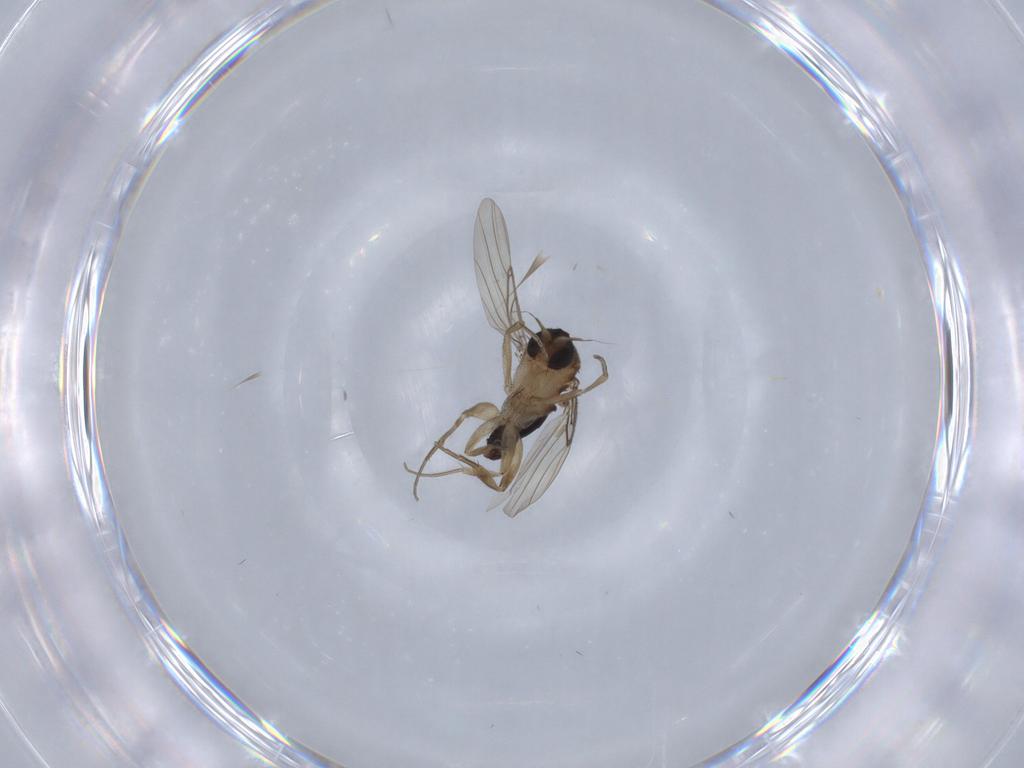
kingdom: Animalia
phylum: Arthropoda
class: Insecta
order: Diptera
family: Phoridae
